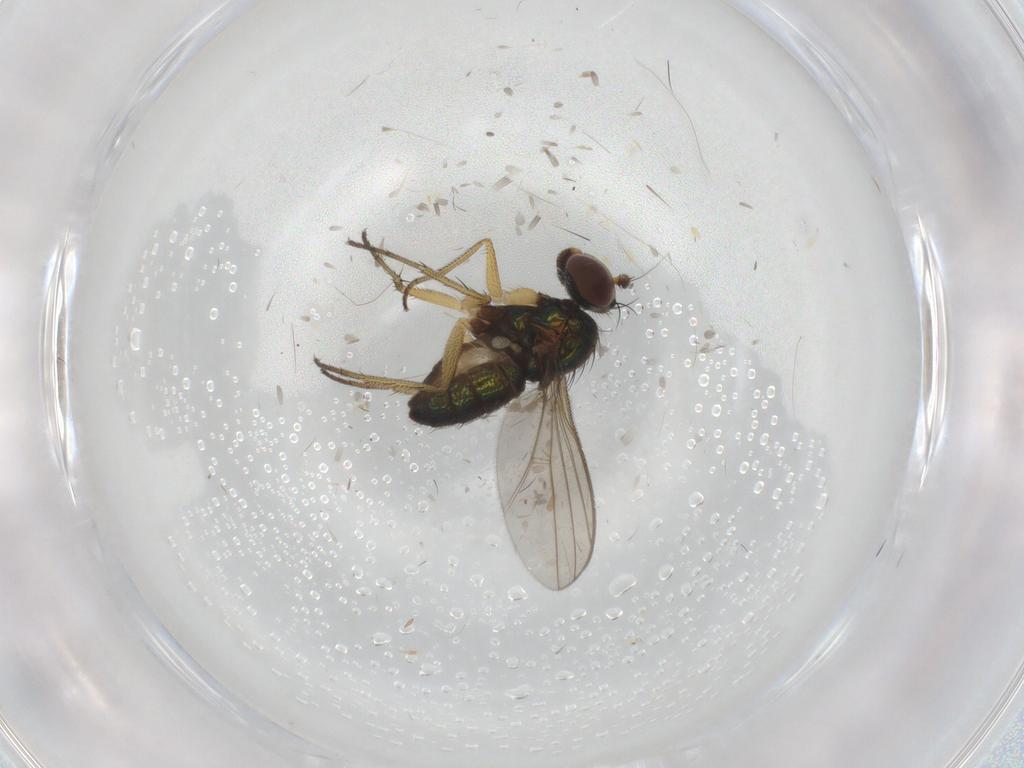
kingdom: Animalia
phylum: Arthropoda
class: Insecta
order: Diptera
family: Dolichopodidae
